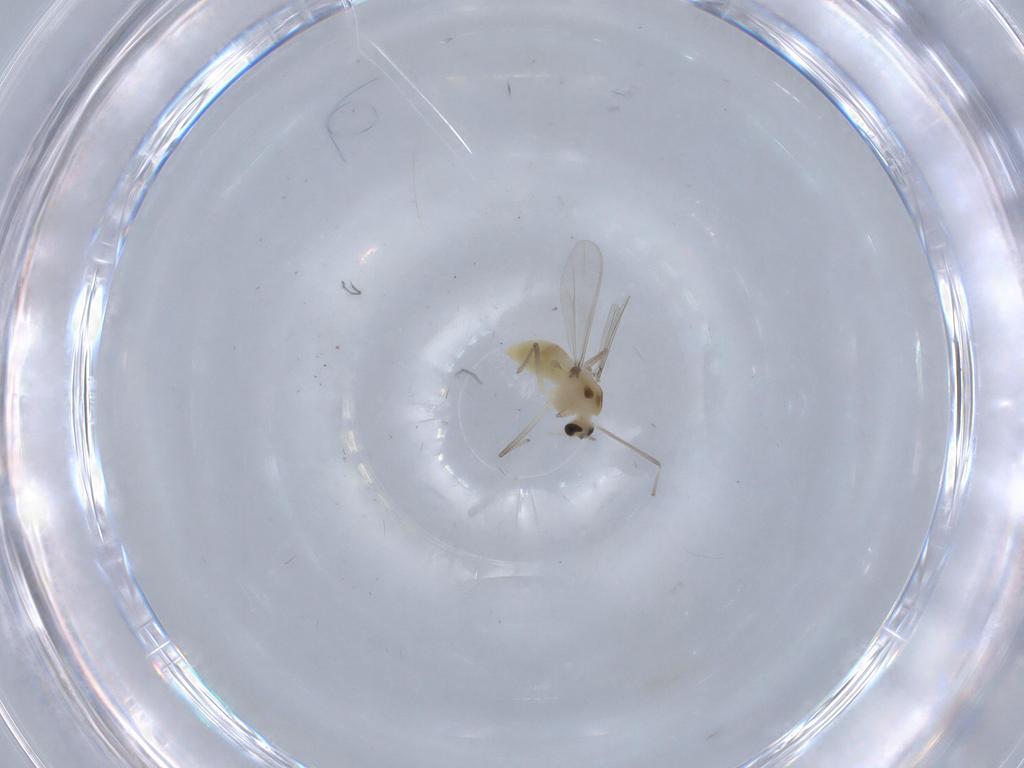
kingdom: Animalia
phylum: Arthropoda
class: Insecta
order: Diptera
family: Chironomidae
